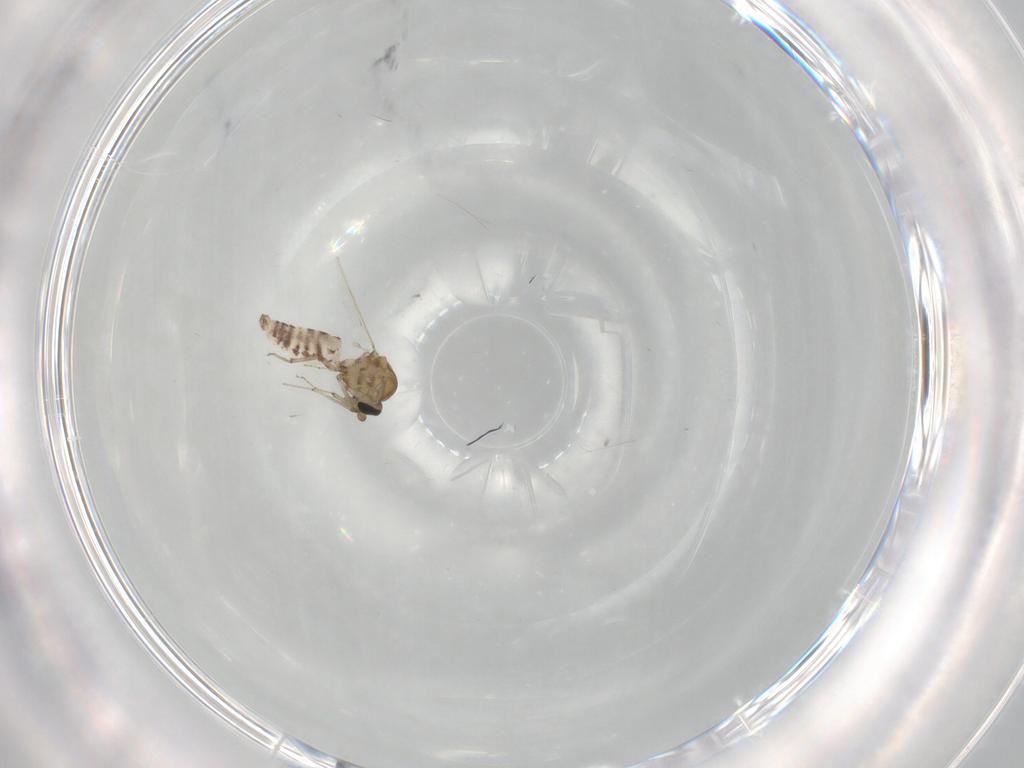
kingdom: Animalia
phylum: Arthropoda
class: Insecta
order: Diptera
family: Ceratopogonidae
